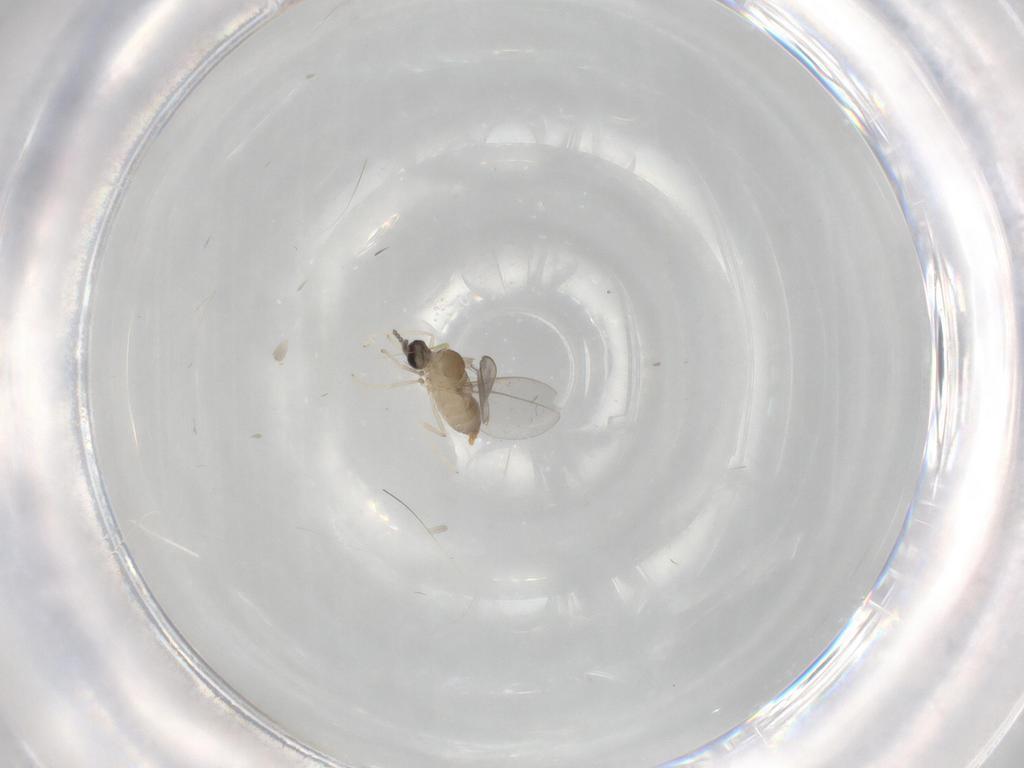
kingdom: Animalia
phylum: Arthropoda
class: Insecta
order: Diptera
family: Cecidomyiidae
